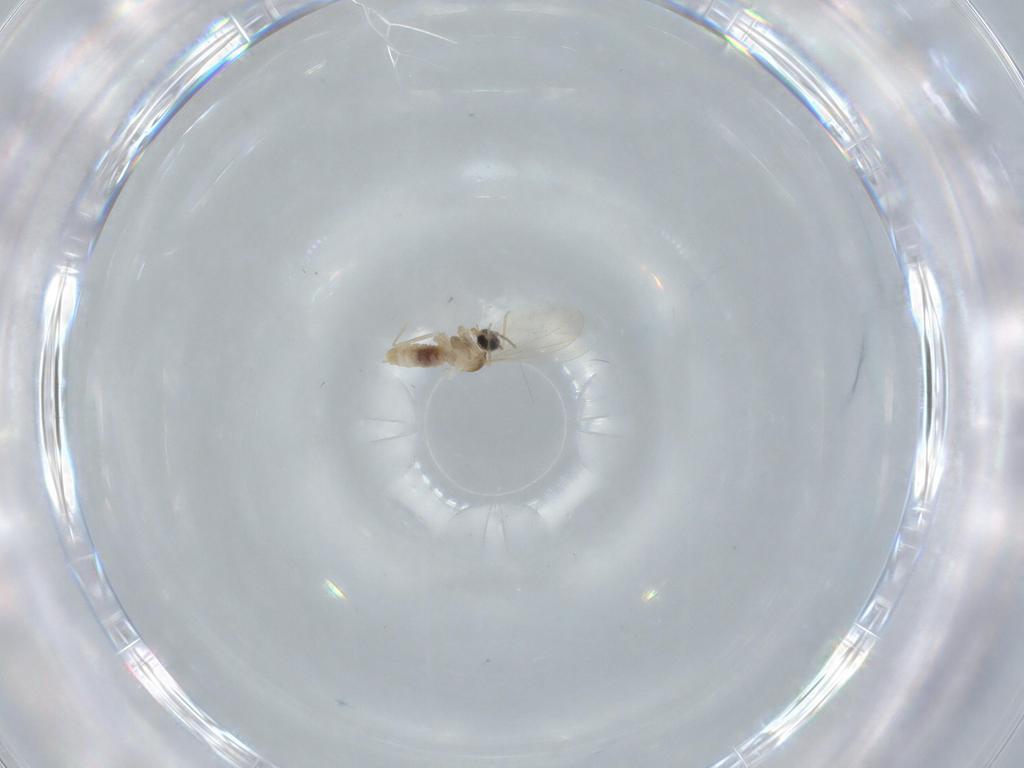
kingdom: Animalia
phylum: Arthropoda
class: Insecta
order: Diptera
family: Cecidomyiidae
